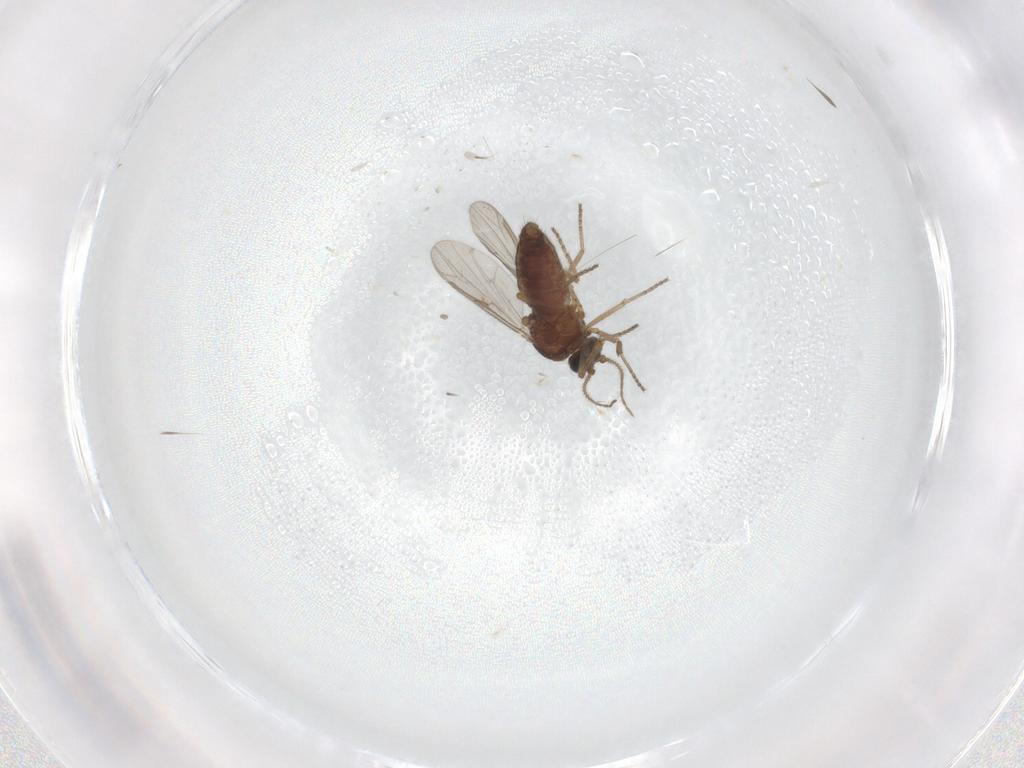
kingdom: Animalia
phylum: Arthropoda
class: Insecta
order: Diptera
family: Ceratopogonidae
